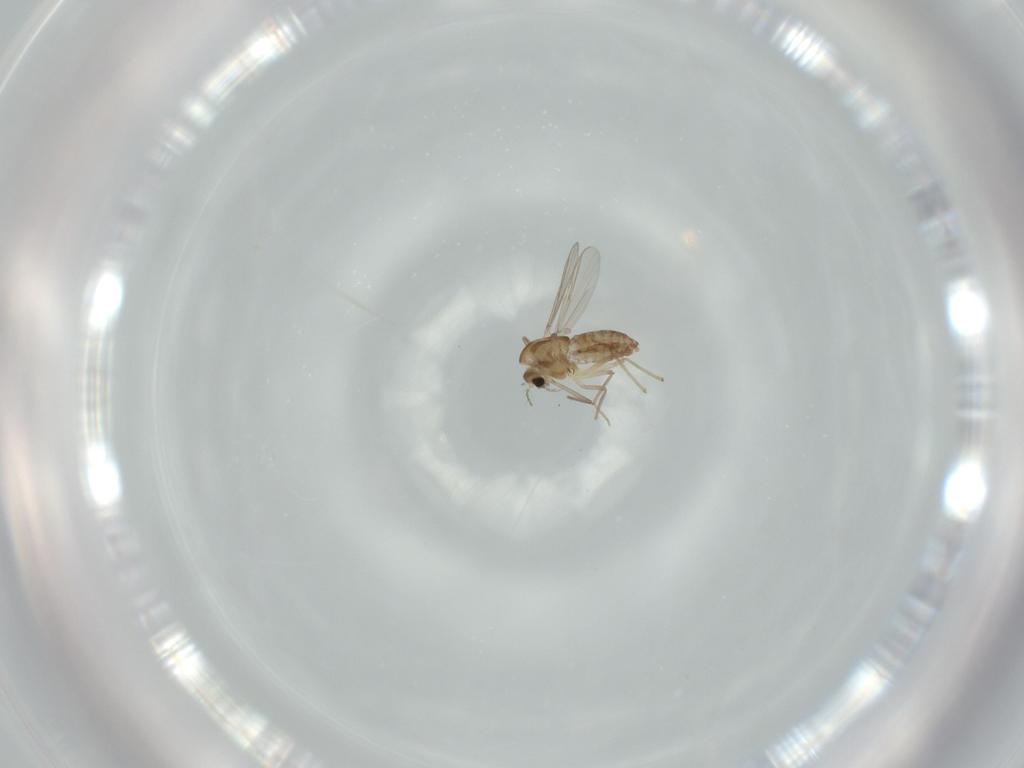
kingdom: Animalia
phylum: Arthropoda
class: Insecta
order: Diptera
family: Chironomidae
